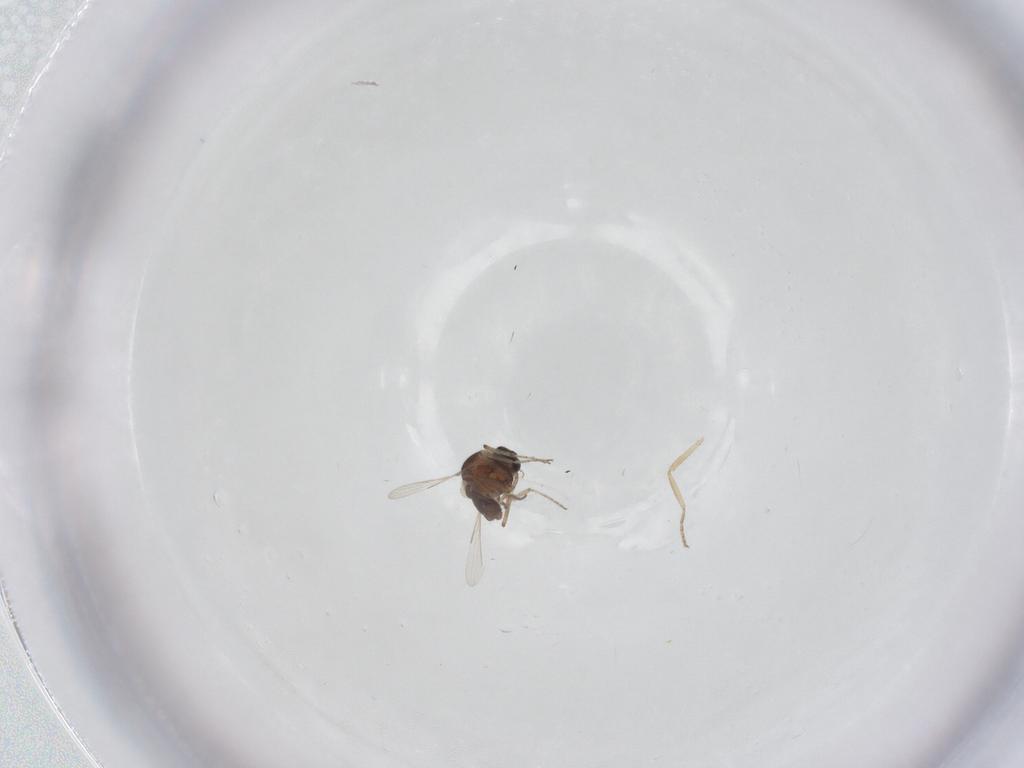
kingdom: Animalia
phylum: Arthropoda
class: Insecta
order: Diptera
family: Ceratopogonidae
